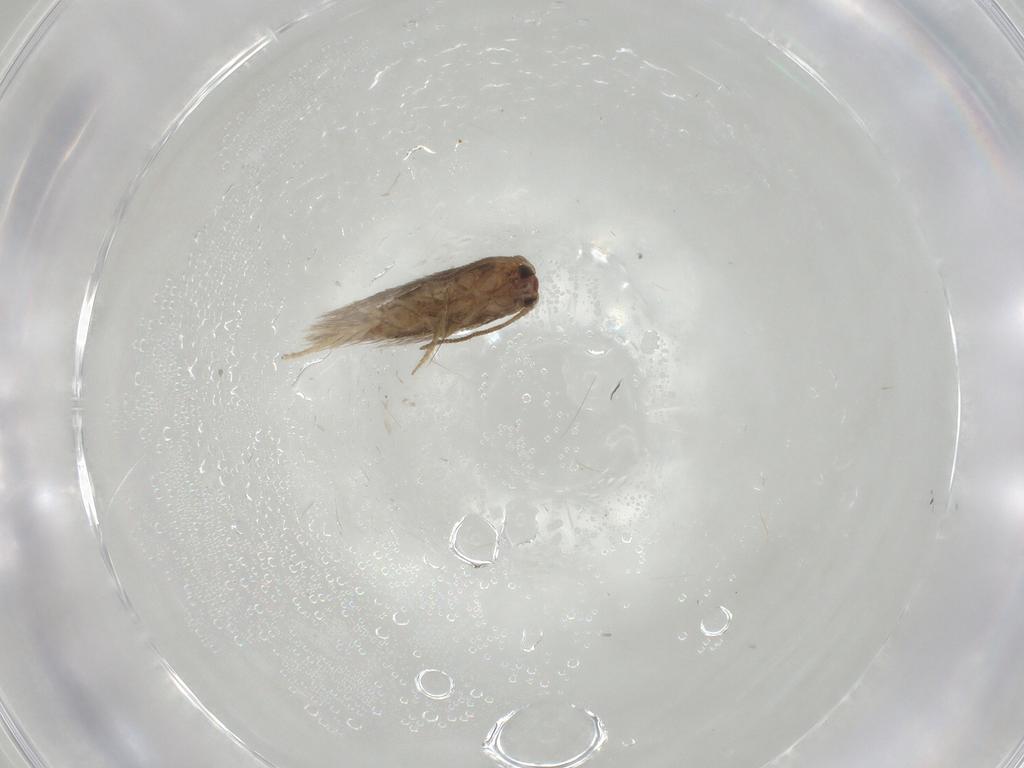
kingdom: Animalia
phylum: Arthropoda
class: Insecta
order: Lepidoptera
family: Nepticulidae
